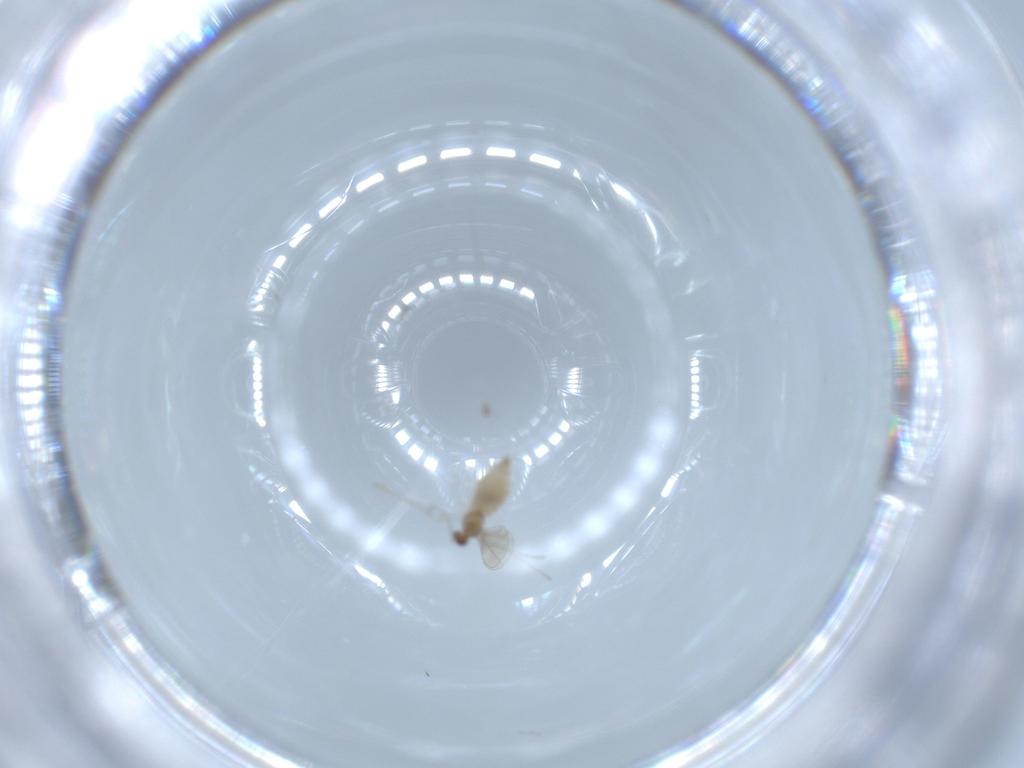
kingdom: Animalia
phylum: Arthropoda
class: Insecta
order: Diptera
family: Cecidomyiidae
